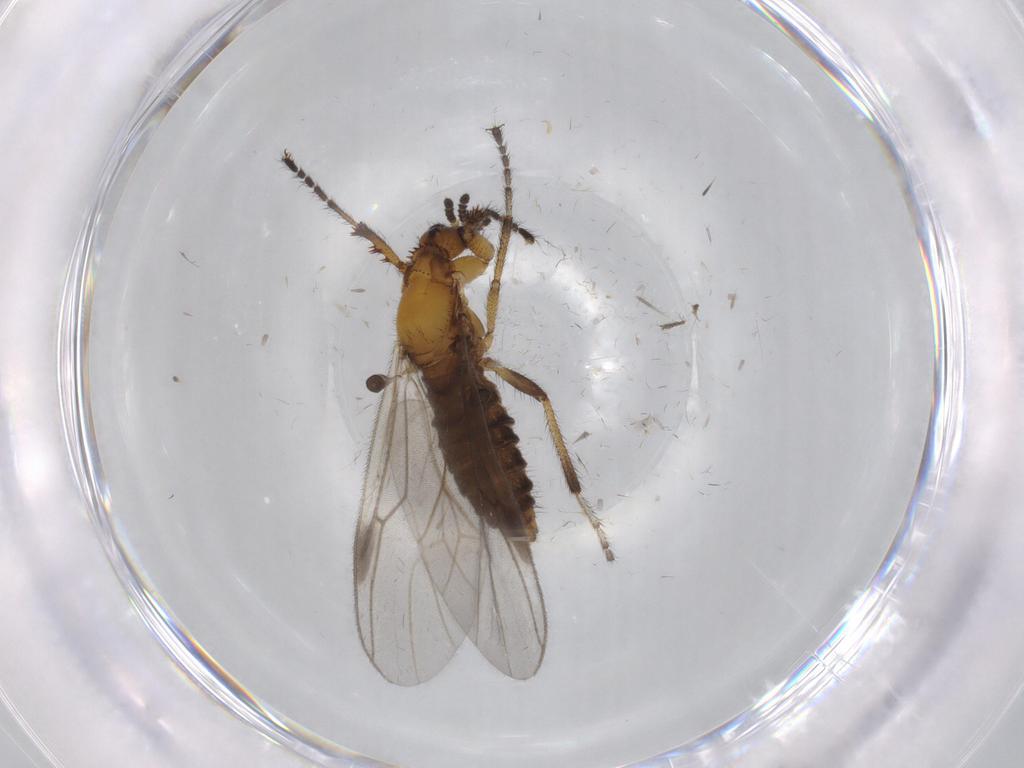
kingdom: Animalia
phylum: Arthropoda
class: Insecta
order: Diptera
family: Bibionidae
